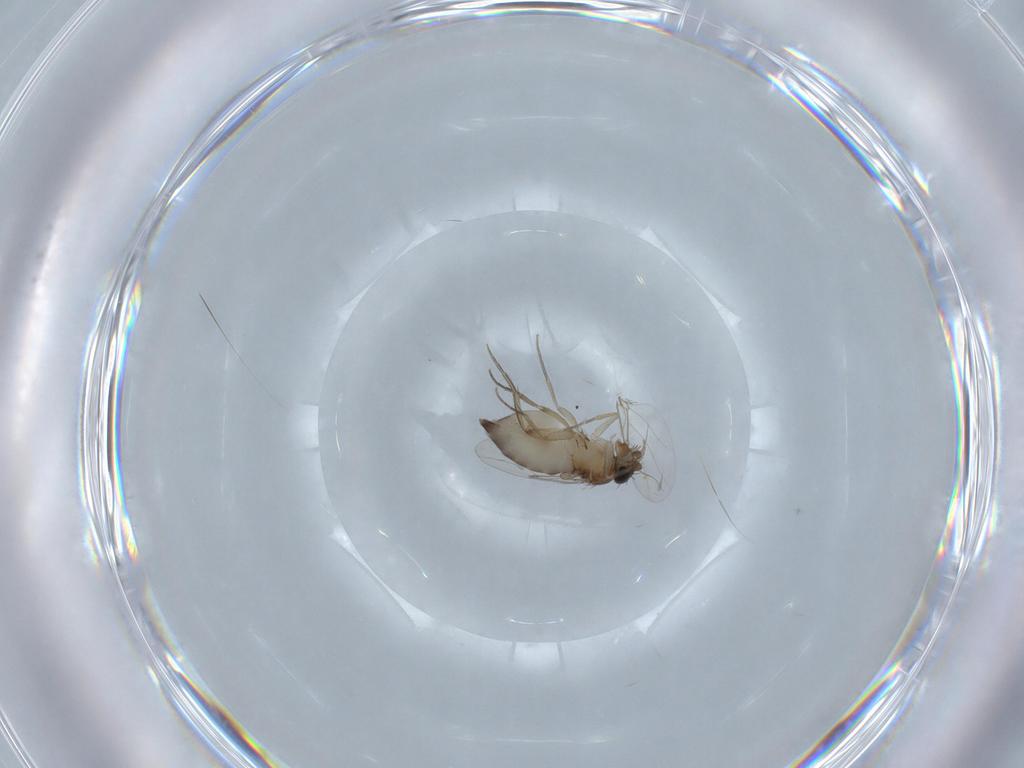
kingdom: Animalia
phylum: Arthropoda
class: Insecta
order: Diptera
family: Phoridae
